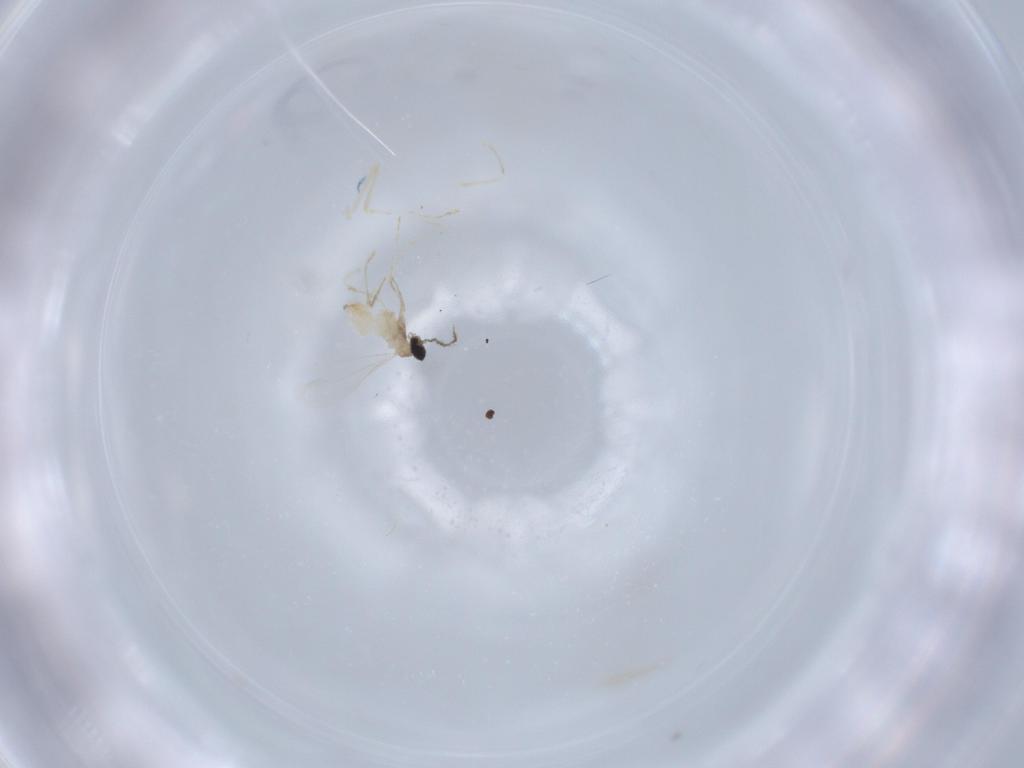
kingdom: Animalia
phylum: Arthropoda
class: Insecta
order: Diptera
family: Cecidomyiidae
